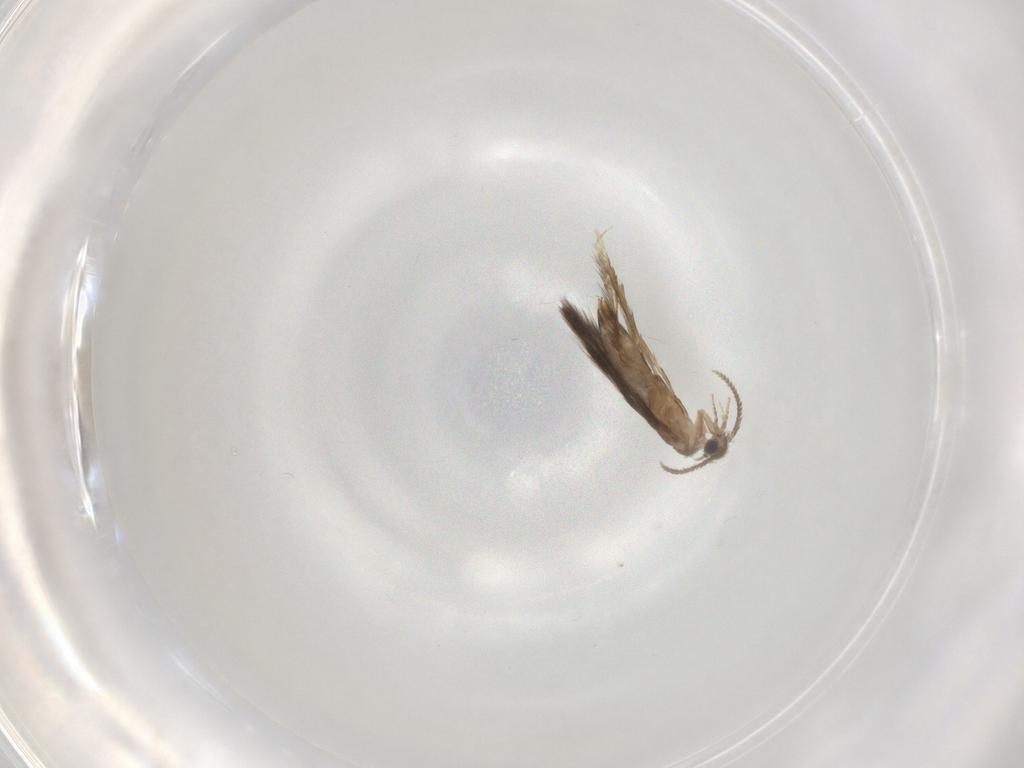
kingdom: Animalia
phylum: Arthropoda
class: Insecta
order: Trichoptera
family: Hydroptilidae
